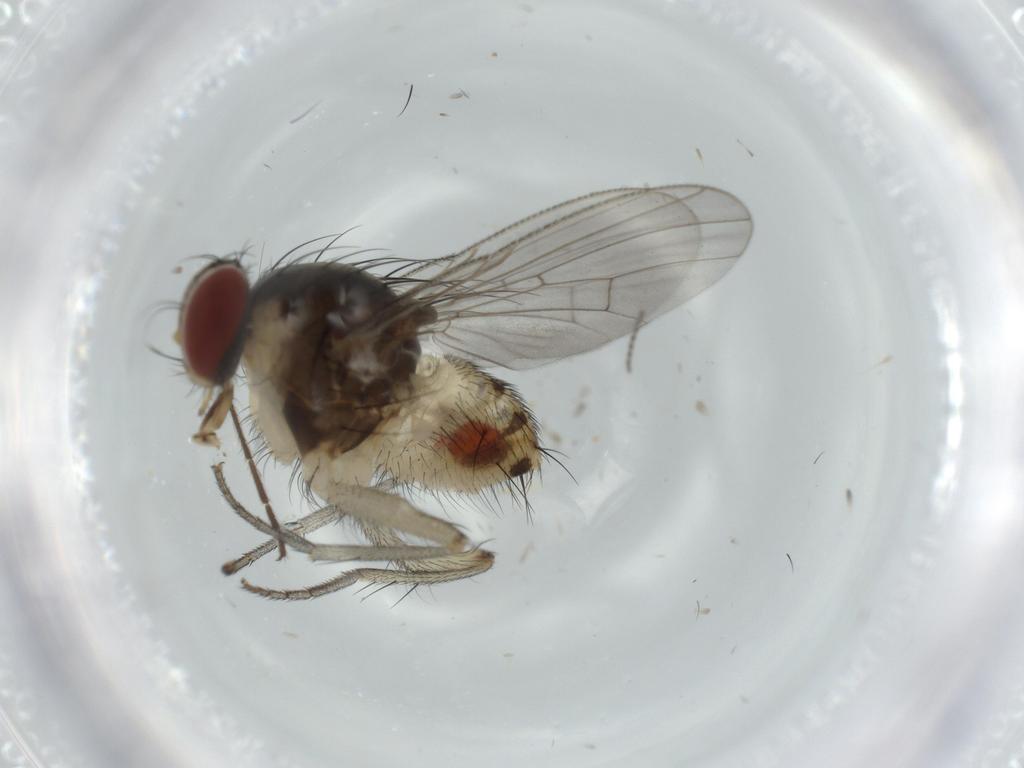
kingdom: Animalia
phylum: Arthropoda
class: Insecta
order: Diptera
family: Muscidae
